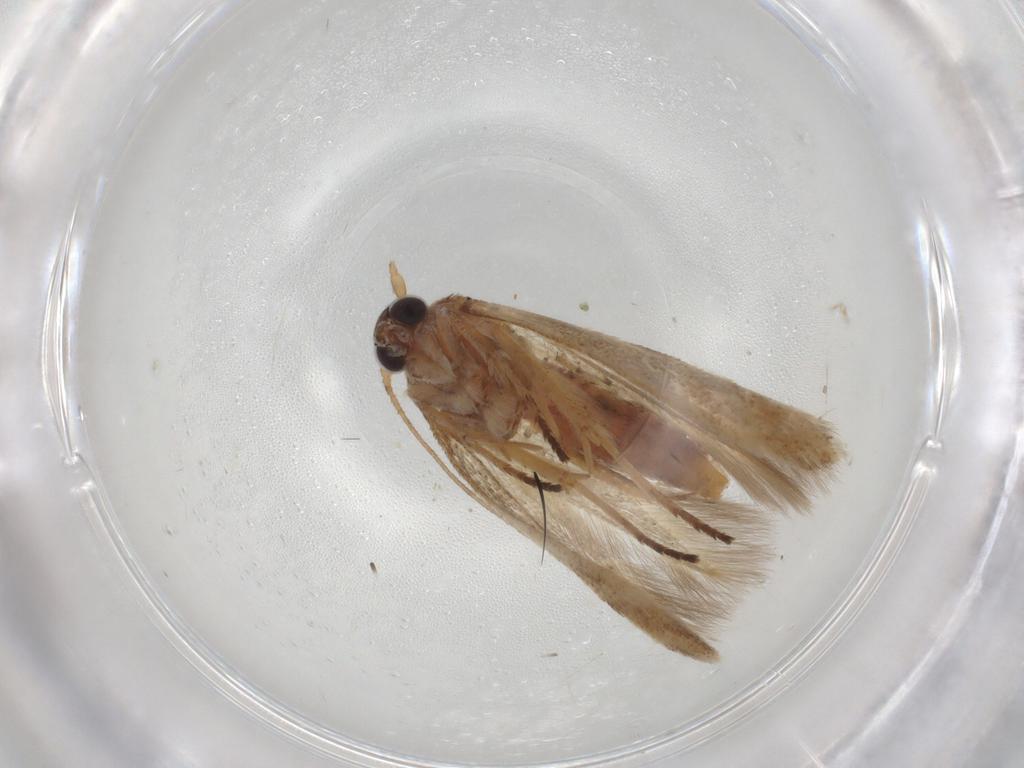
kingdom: Animalia
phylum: Arthropoda
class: Insecta
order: Lepidoptera
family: Scythrididae
